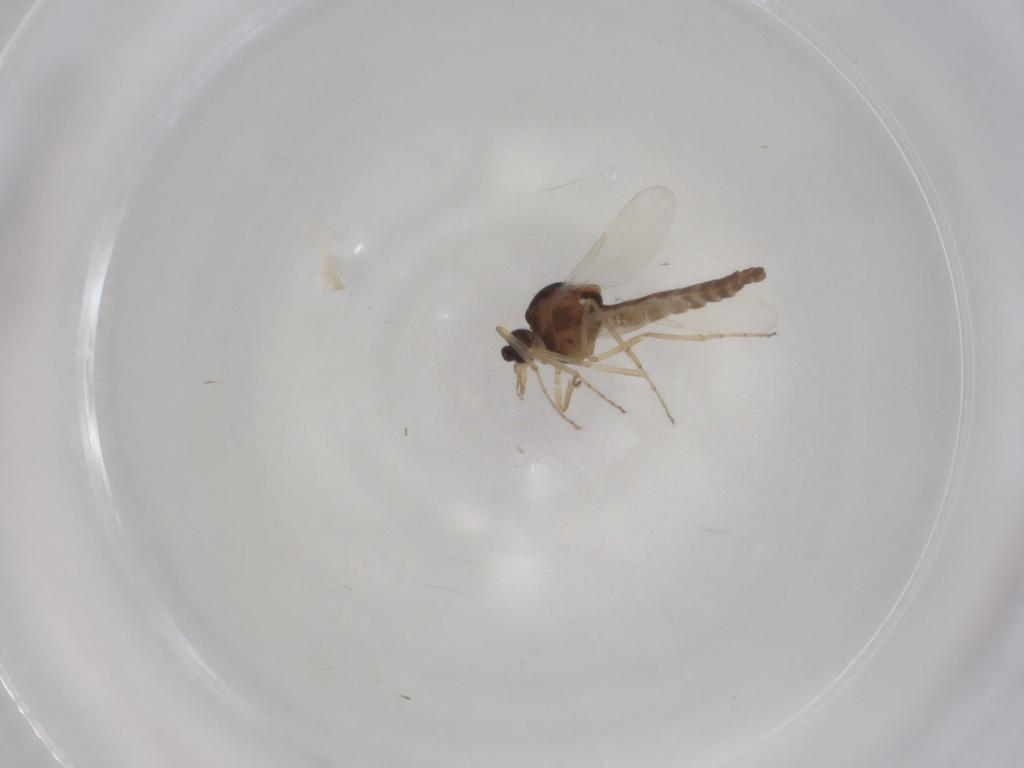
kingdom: Animalia
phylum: Arthropoda
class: Insecta
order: Diptera
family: Ceratopogonidae
